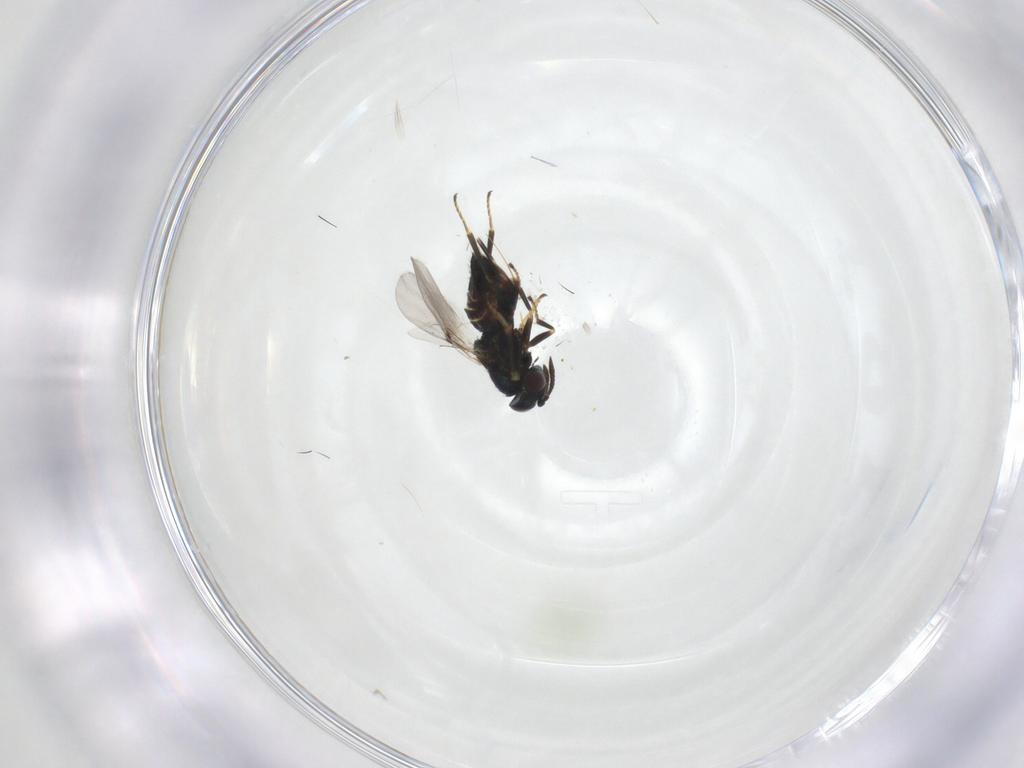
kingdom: Animalia
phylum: Arthropoda
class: Insecta
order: Hymenoptera
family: Encyrtidae
